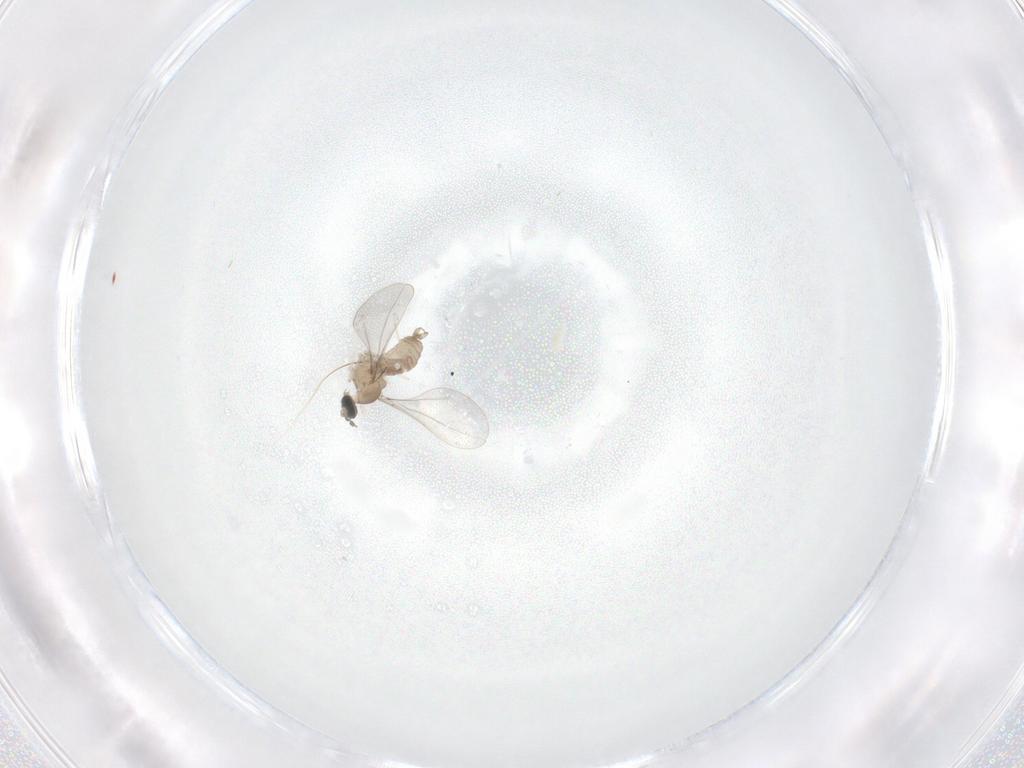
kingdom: Animalia
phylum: Arthropoda
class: Insecta
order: Diptera
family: Cecidomyiidae
